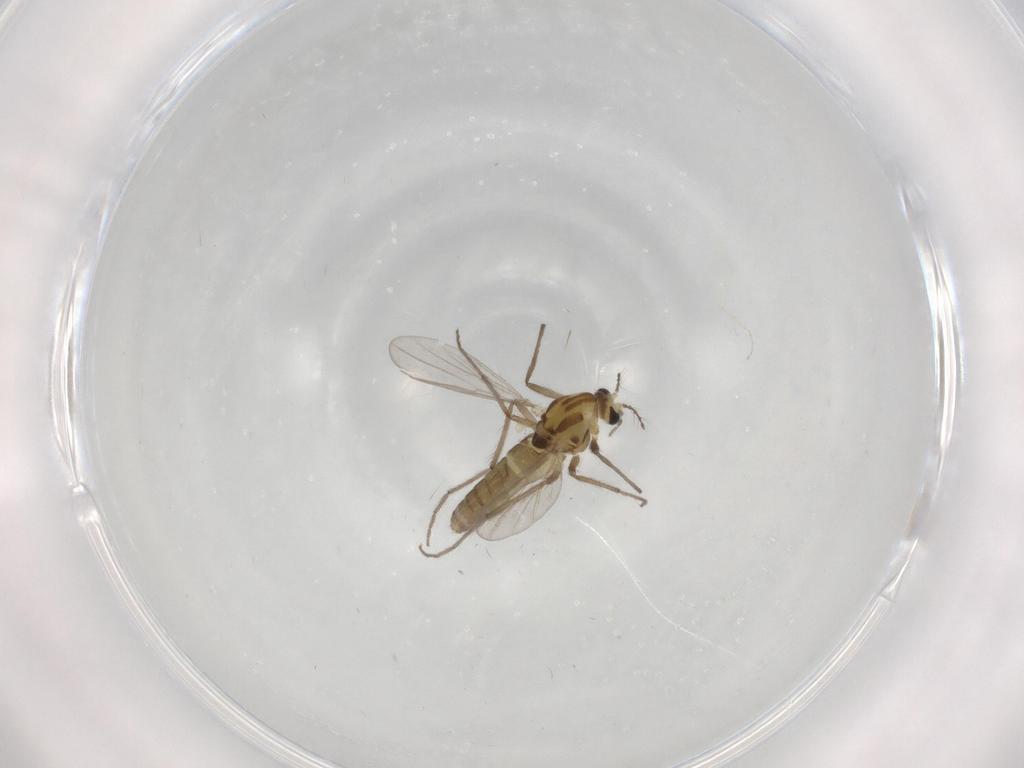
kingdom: Animalia
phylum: Arthropoda
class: Insecta
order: Diptera
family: Chironomidae
